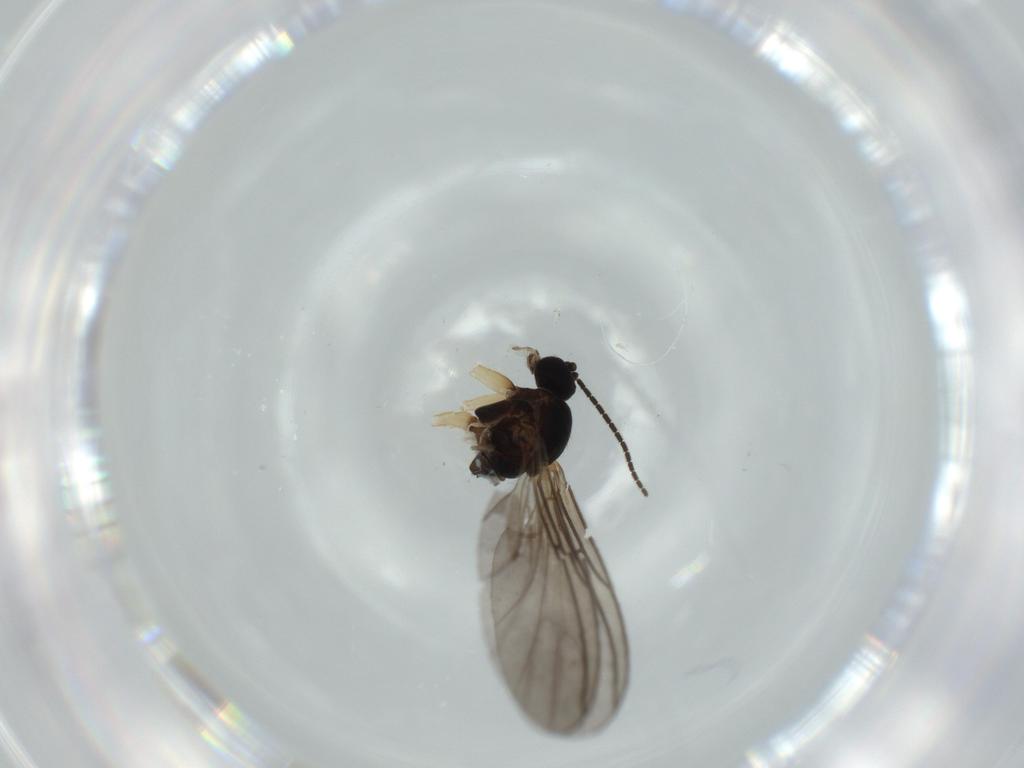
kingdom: Animalia
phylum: Arthropoda
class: Insecta
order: Diptera
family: Sciaridae
